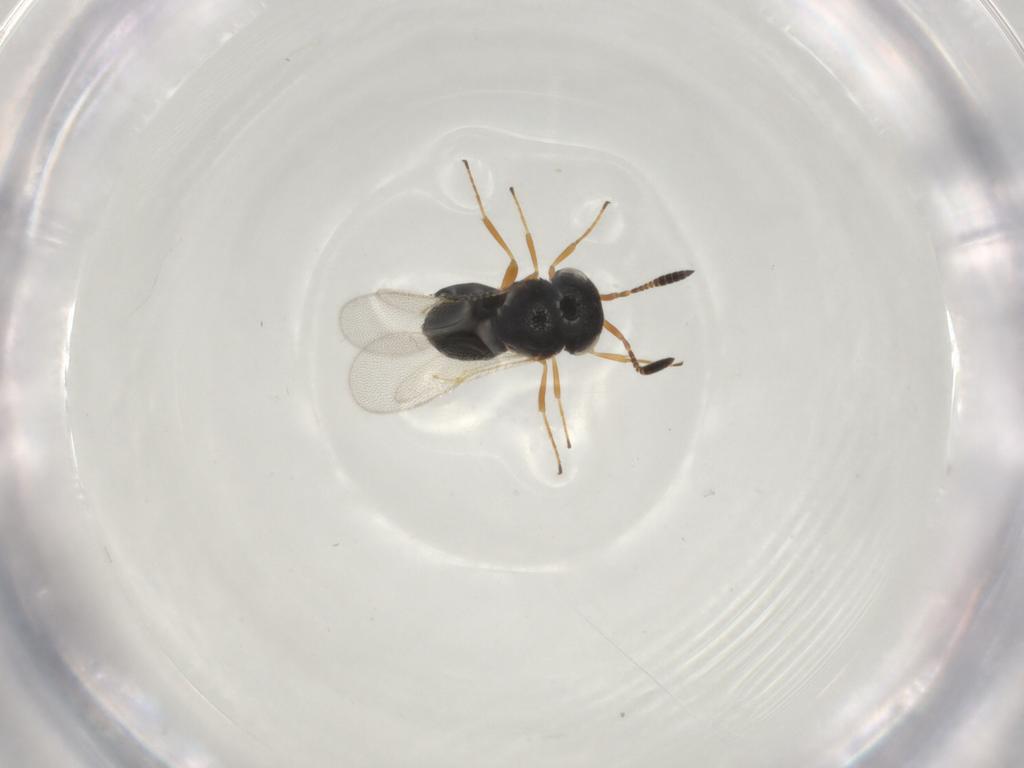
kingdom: Animalia
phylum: Arthropoda
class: Insecta
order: Hymenoptera
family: Scelionidae
